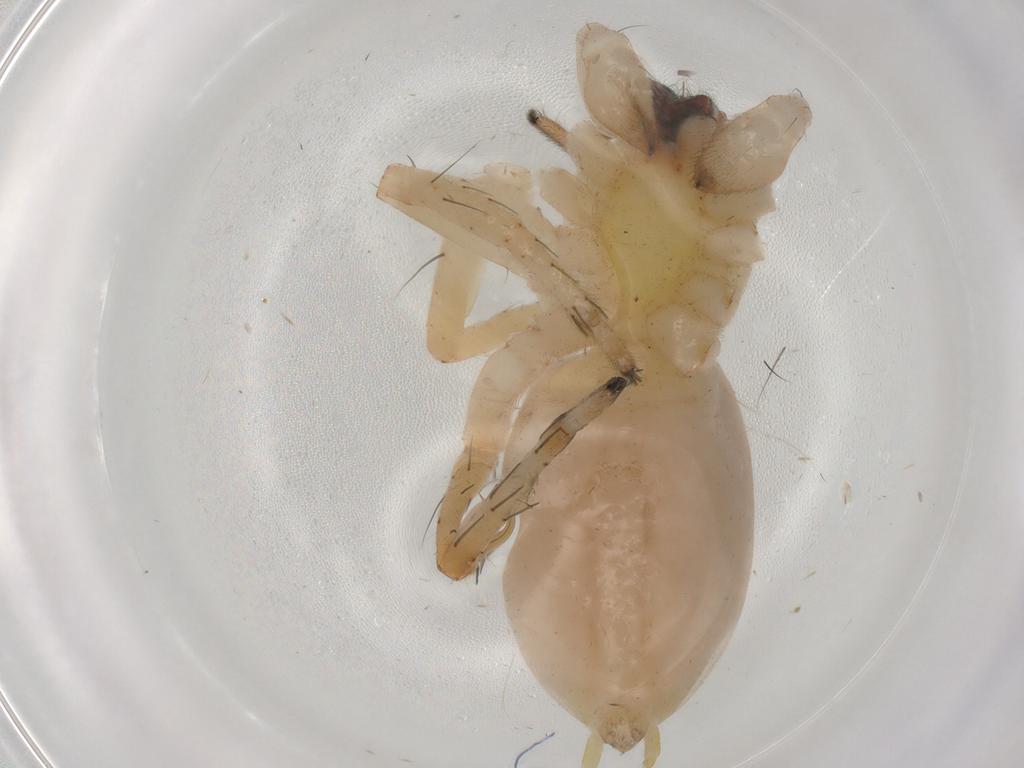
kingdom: Animalia
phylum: Arthropoda
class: Arachnida
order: Araneae
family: Anyphaenidae
